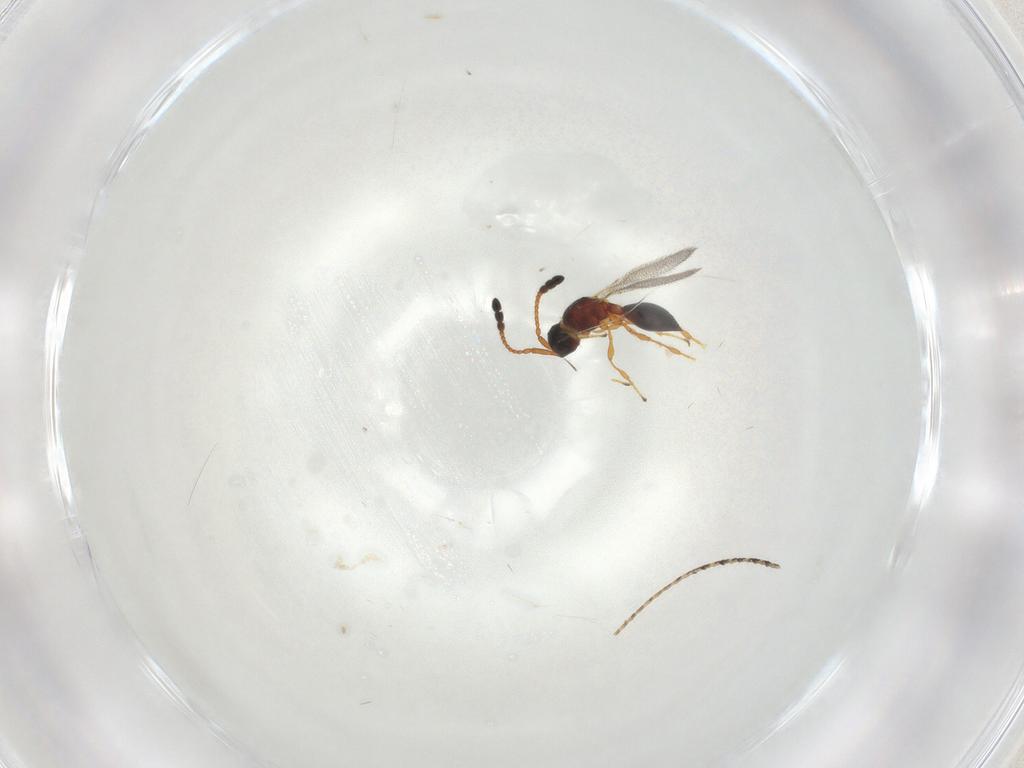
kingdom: Animalia
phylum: Arthropoda
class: Insecta
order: Hymenoptera
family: Diapriidae
